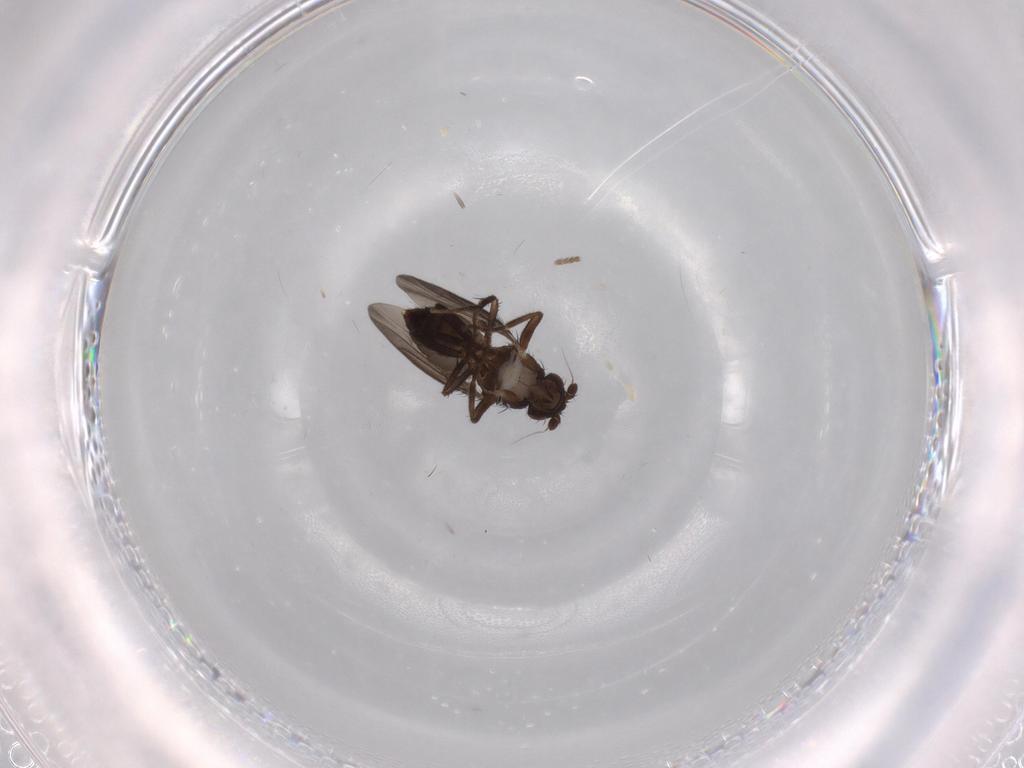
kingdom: Animalia
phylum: Arthropoda
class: Insecta
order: Diptera
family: Sphaeroceridae
